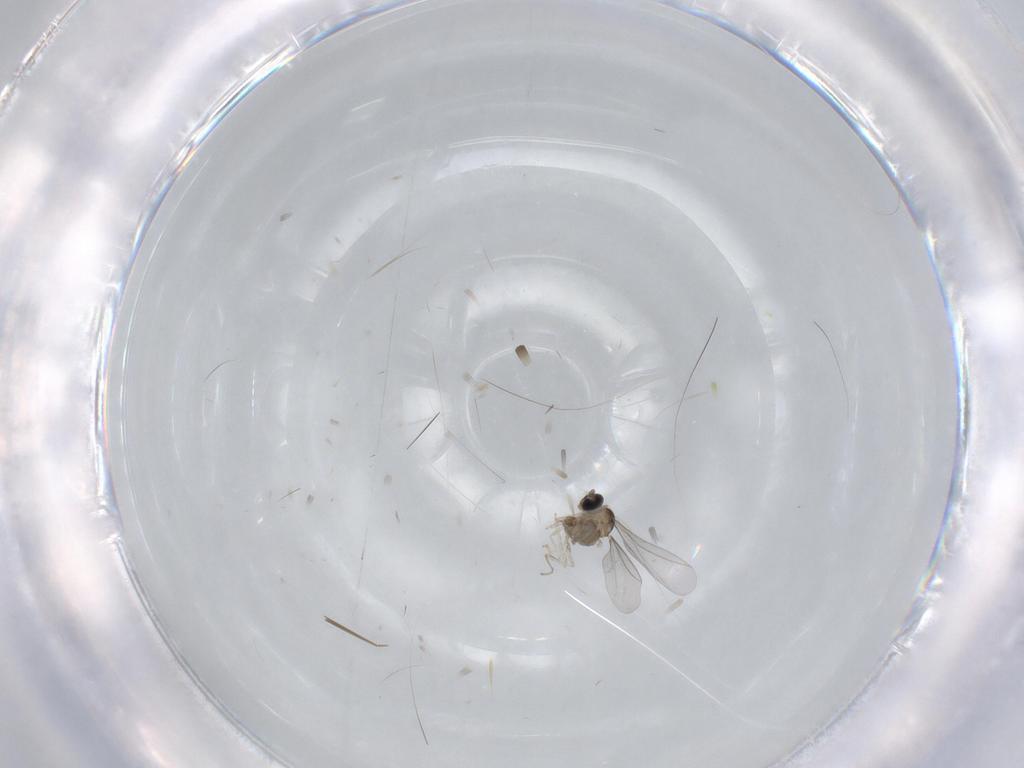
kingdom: Animalia
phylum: Arthropoda
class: Insecta
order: Diptera
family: Cecidomyiidae
